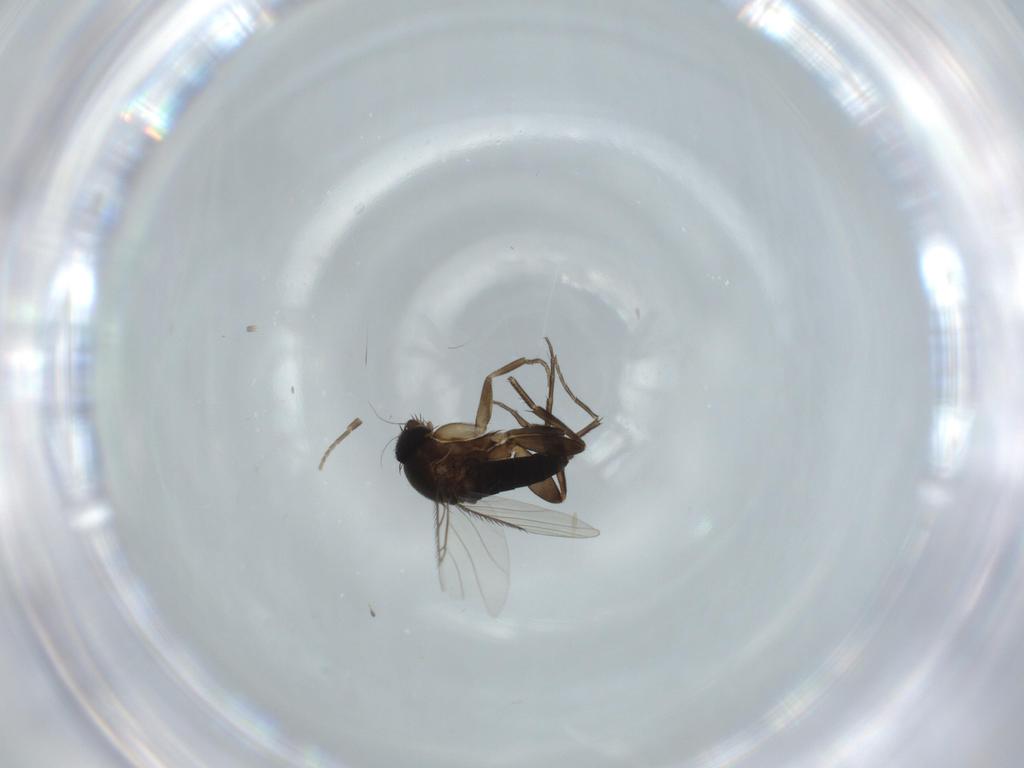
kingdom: Animalia
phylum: Arthropoda
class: Insecta
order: Diptera
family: Phoridae
